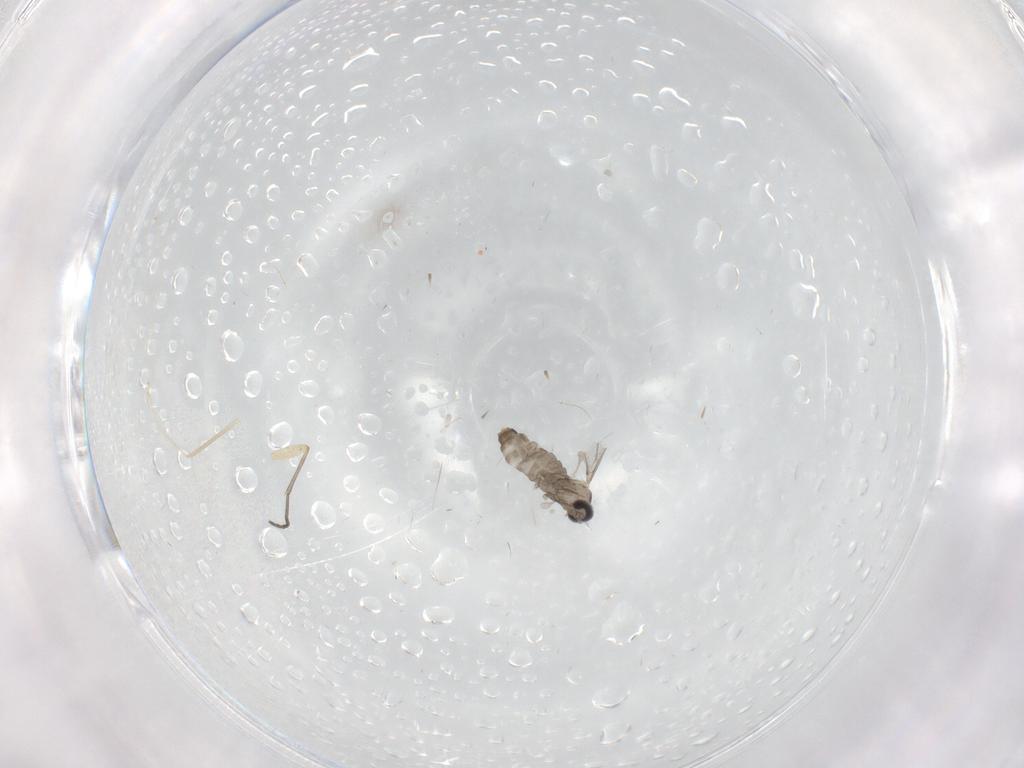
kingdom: Animalia
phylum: Arthropoda
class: Insecta
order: Diptera
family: Cecidomyiidae
